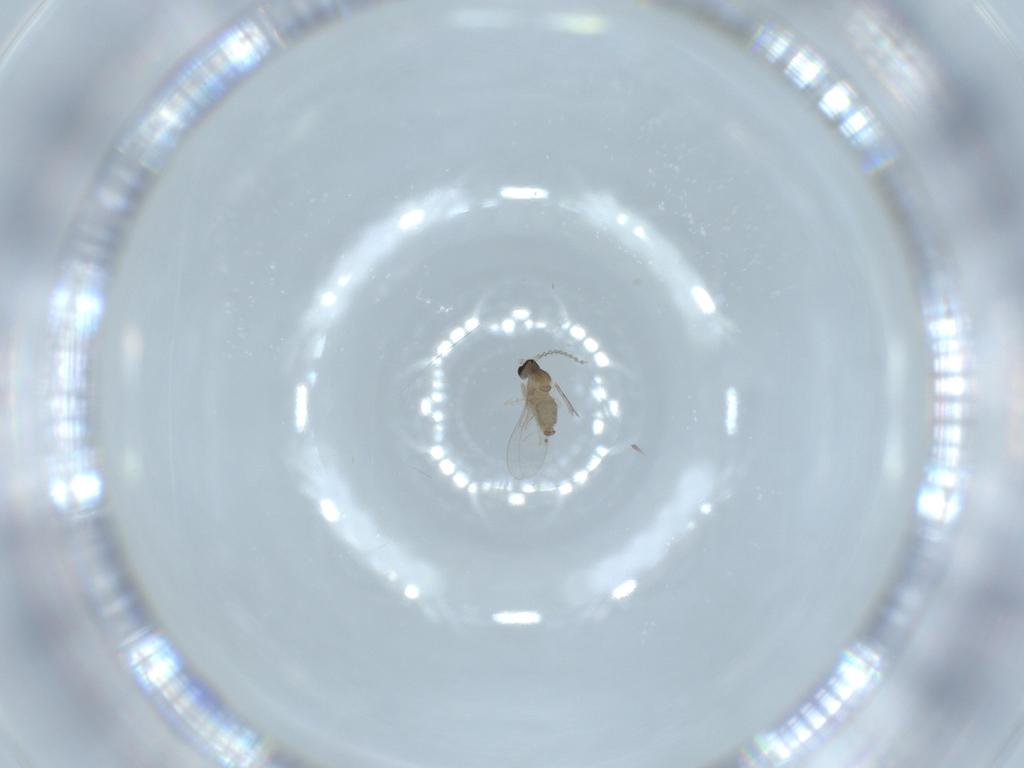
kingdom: Animalia
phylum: Arthropoda
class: Insecta
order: Diptera
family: Cecidomyiidae
